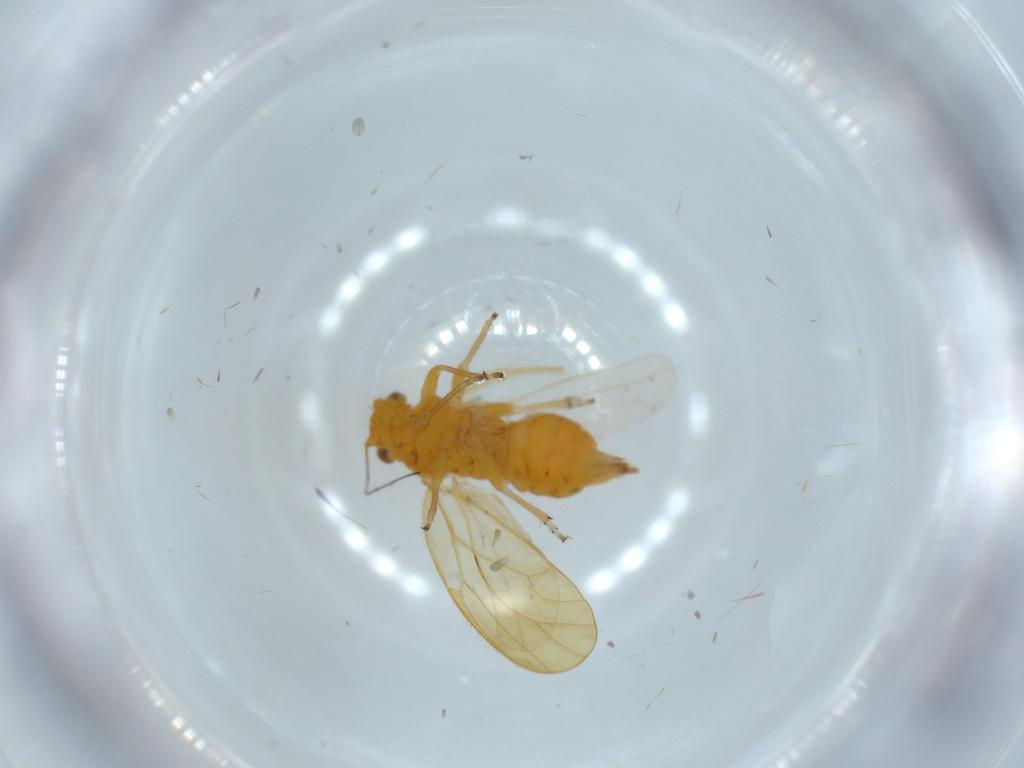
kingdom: Animalia
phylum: Arthropoda
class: Insecta
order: Hemiptera
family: Psyllidae
